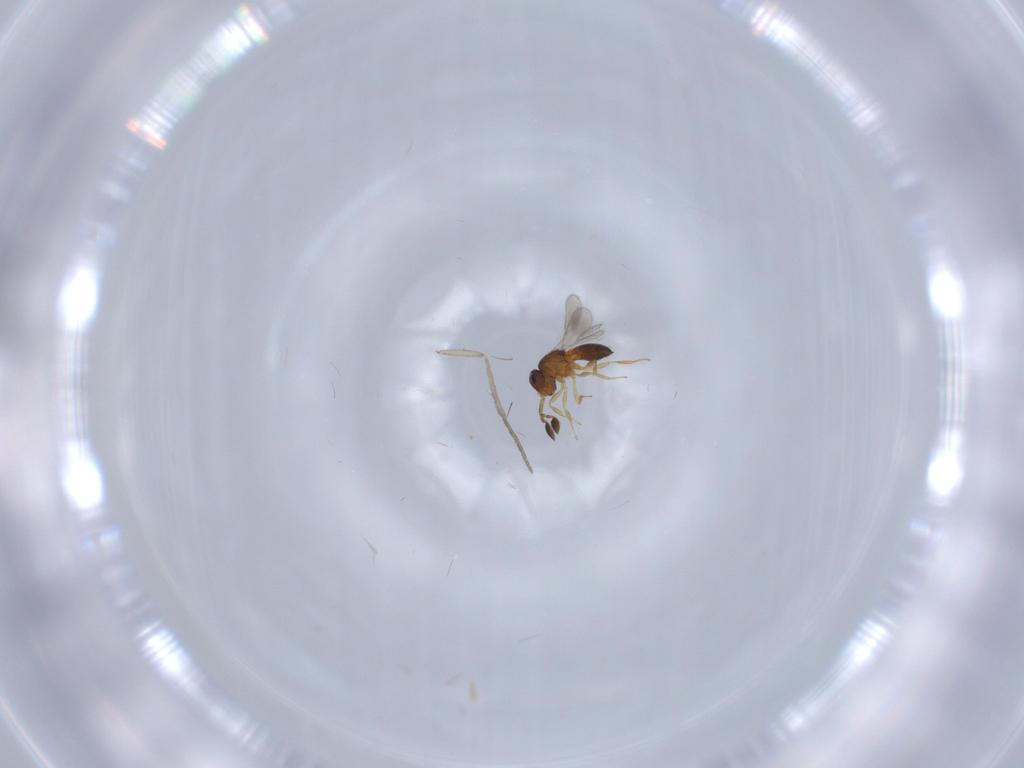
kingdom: Animalia
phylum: Arthropoda
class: Insecta
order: Hymenoptera
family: Scelionidae
